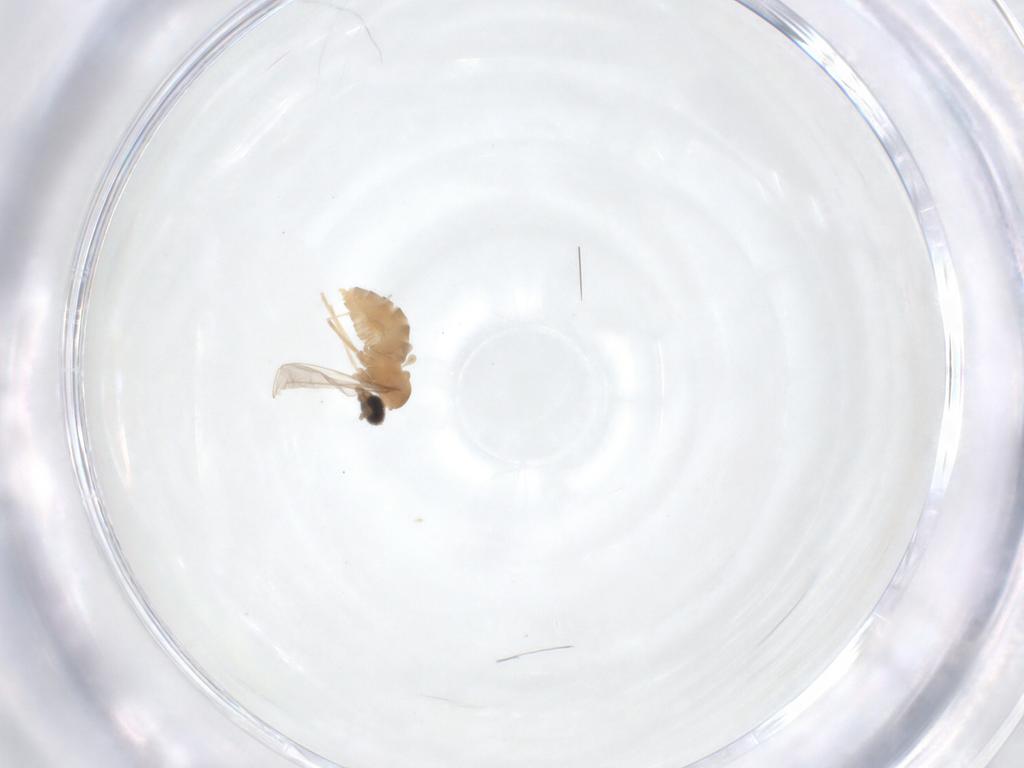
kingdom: Animalia
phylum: Arthropoda
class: Insecta
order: Diptera
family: Cecidomyiidae
